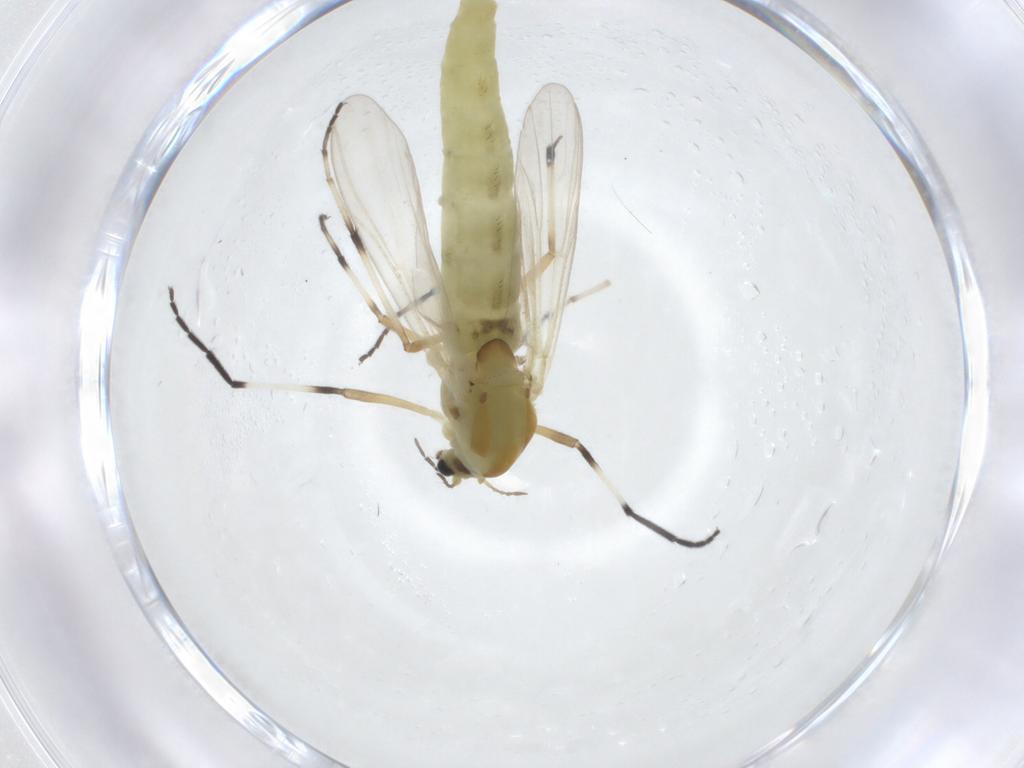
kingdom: Animalia
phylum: Arthropoda
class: Insecta
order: Diptera
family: Chironomidae
